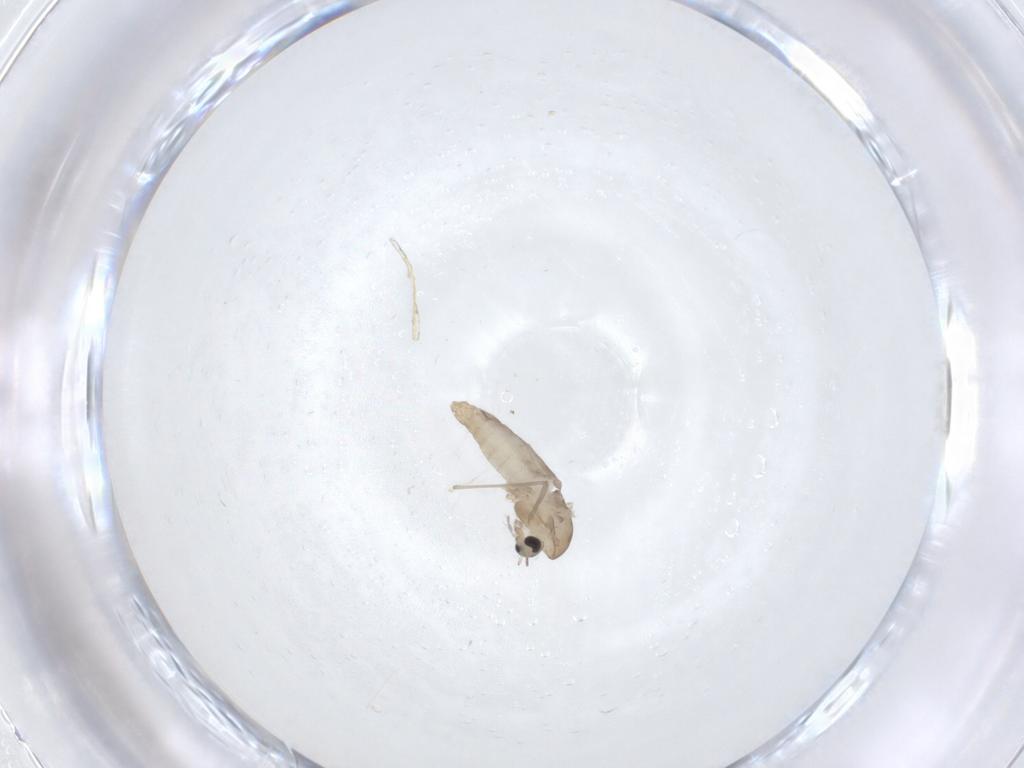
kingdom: Animalia
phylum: Arthropoda
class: Insecta
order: Diptera
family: Chironomidae
